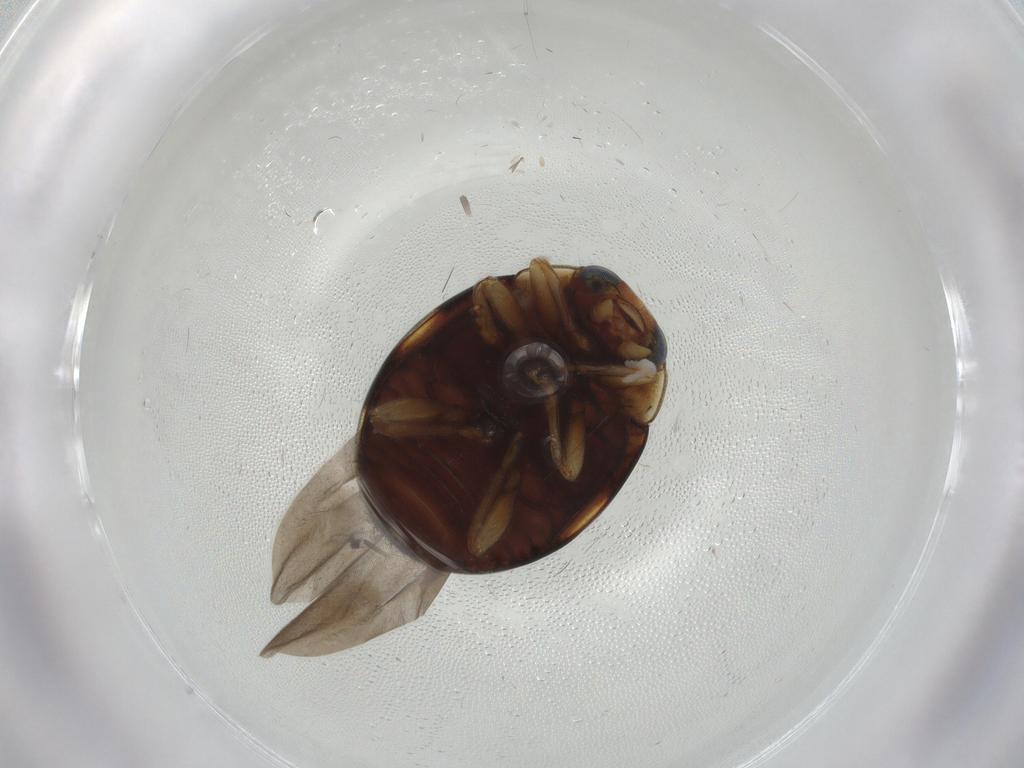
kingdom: Animalia
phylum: Arthropoda
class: Insecta
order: Coleoptera
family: Coccinellidae
